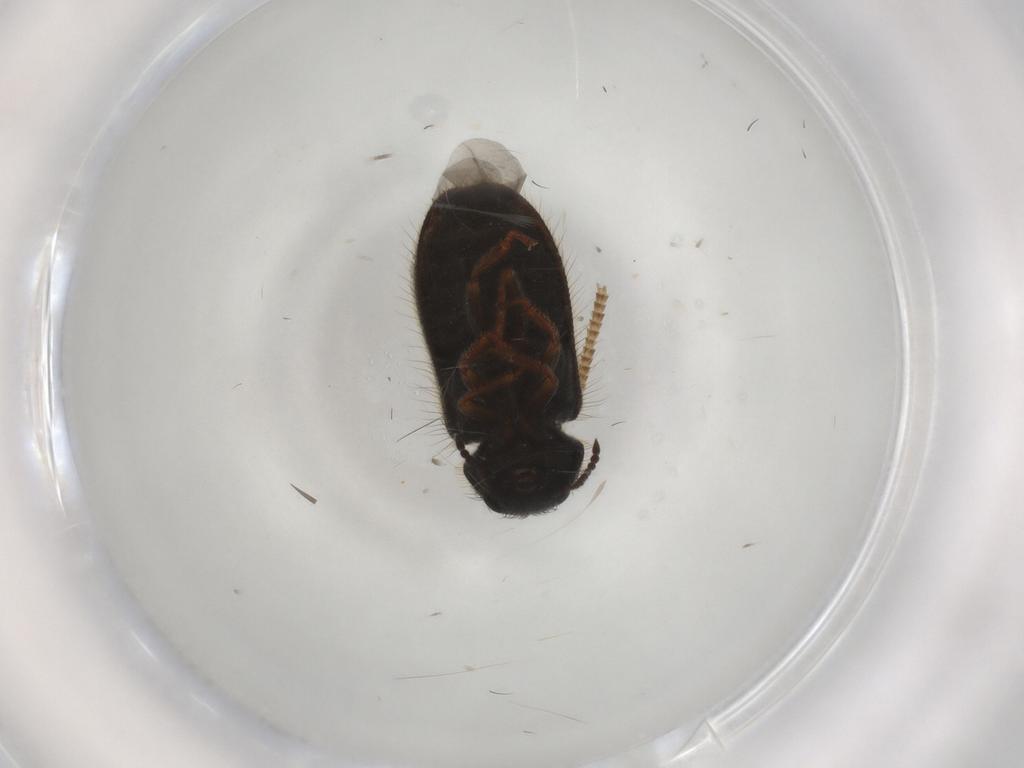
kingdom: Animalia
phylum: Arthropoda
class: Insecta
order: Coleoptera
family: Melyridae
